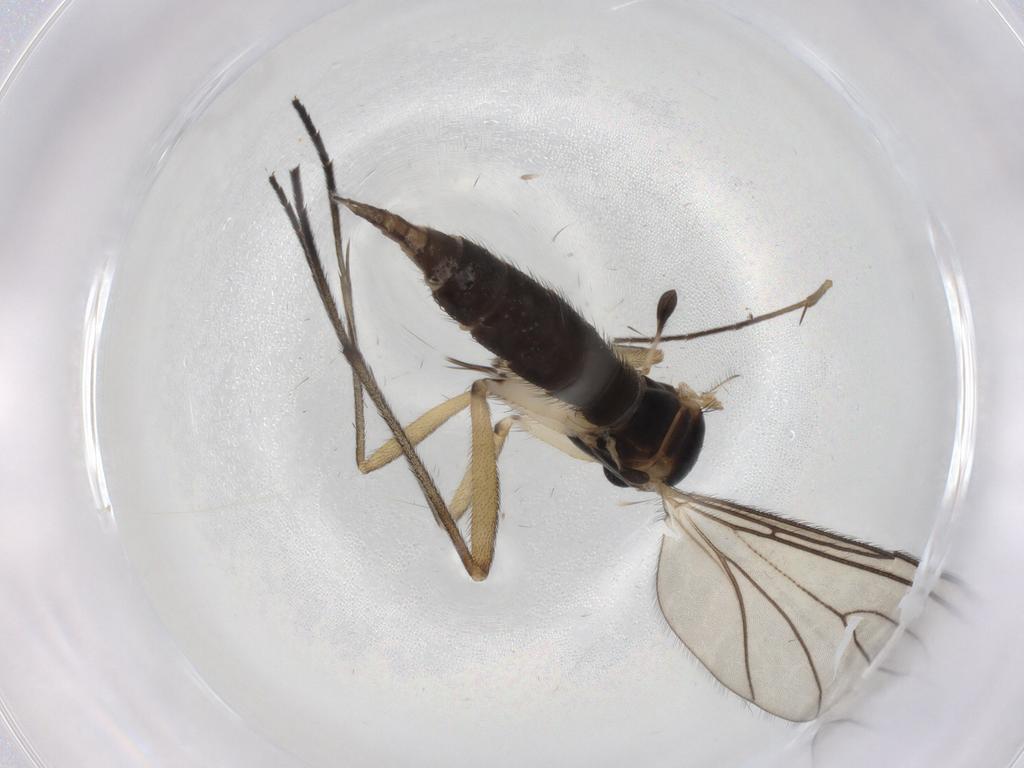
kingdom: Animalia
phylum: Arthropoda
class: Insecta
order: Diptera
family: Sciaridae
